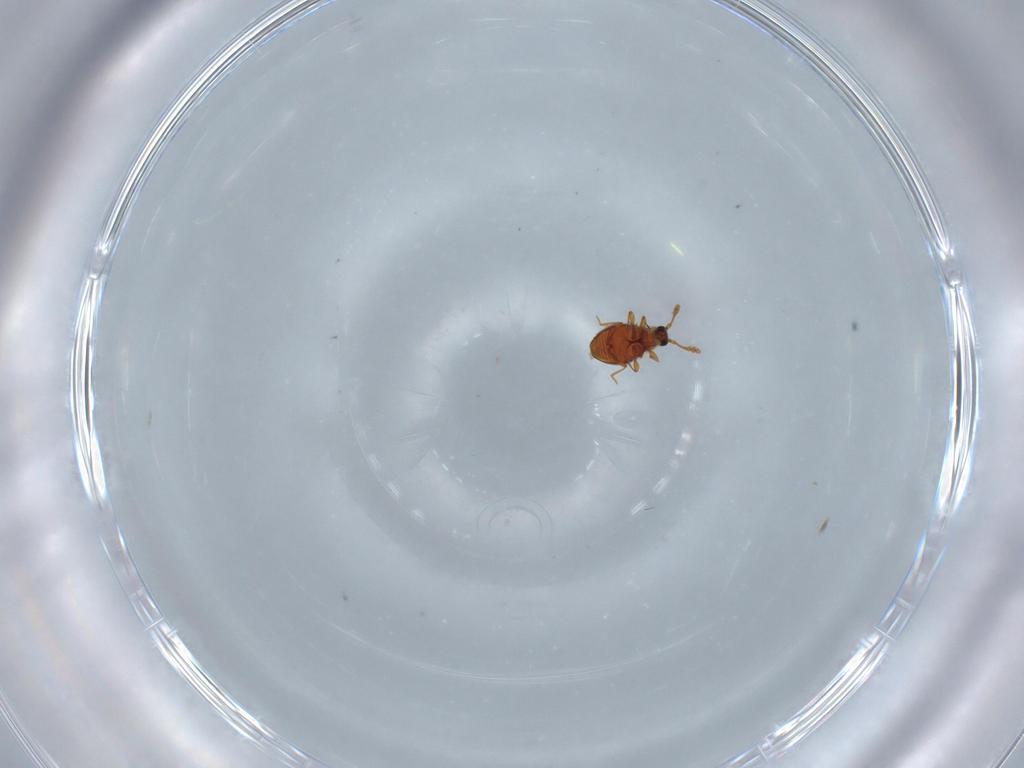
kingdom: Animalia
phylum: Arthropoda
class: Insecta
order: Coleoptera
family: Staphylinidae
